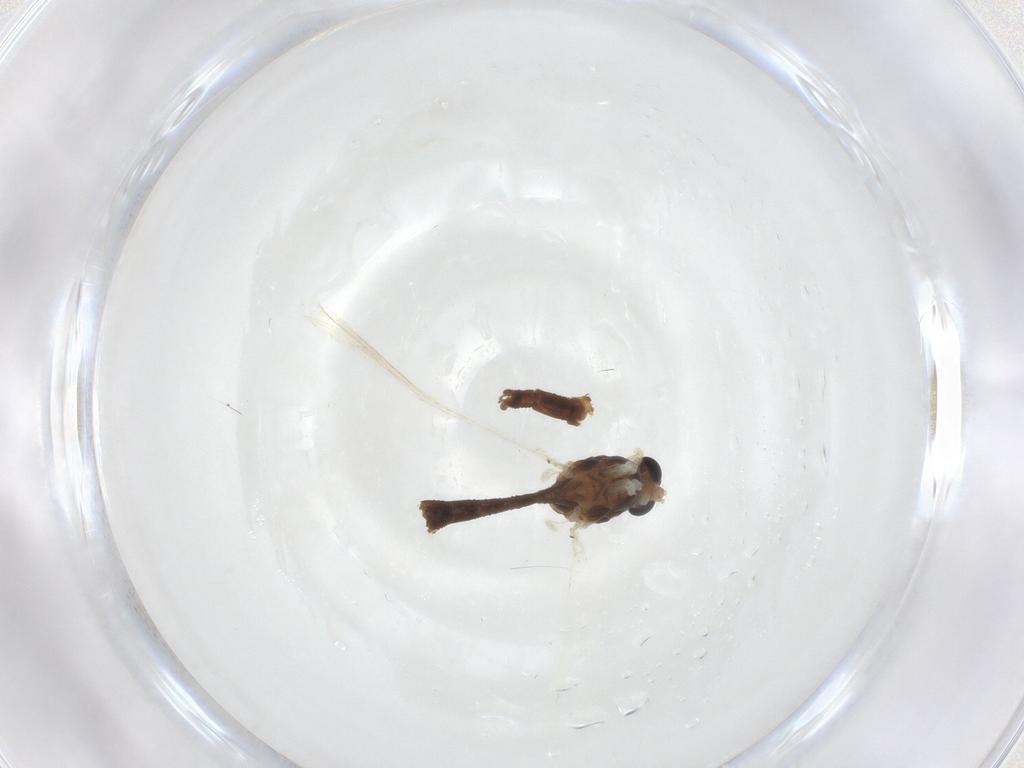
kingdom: Animalia
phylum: Arthropoda
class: Insecta
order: Diptera
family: Chironomidae
